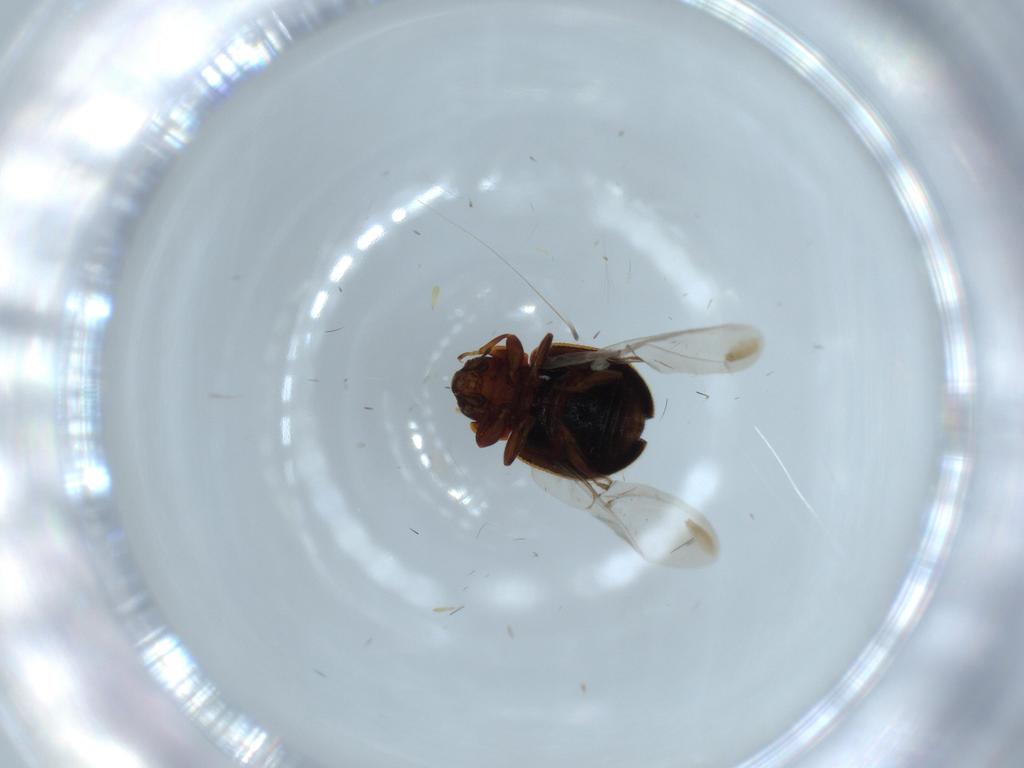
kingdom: Animalia
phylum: Arthropoda
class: Insecta
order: Coleoptera
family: Coccinellidae
